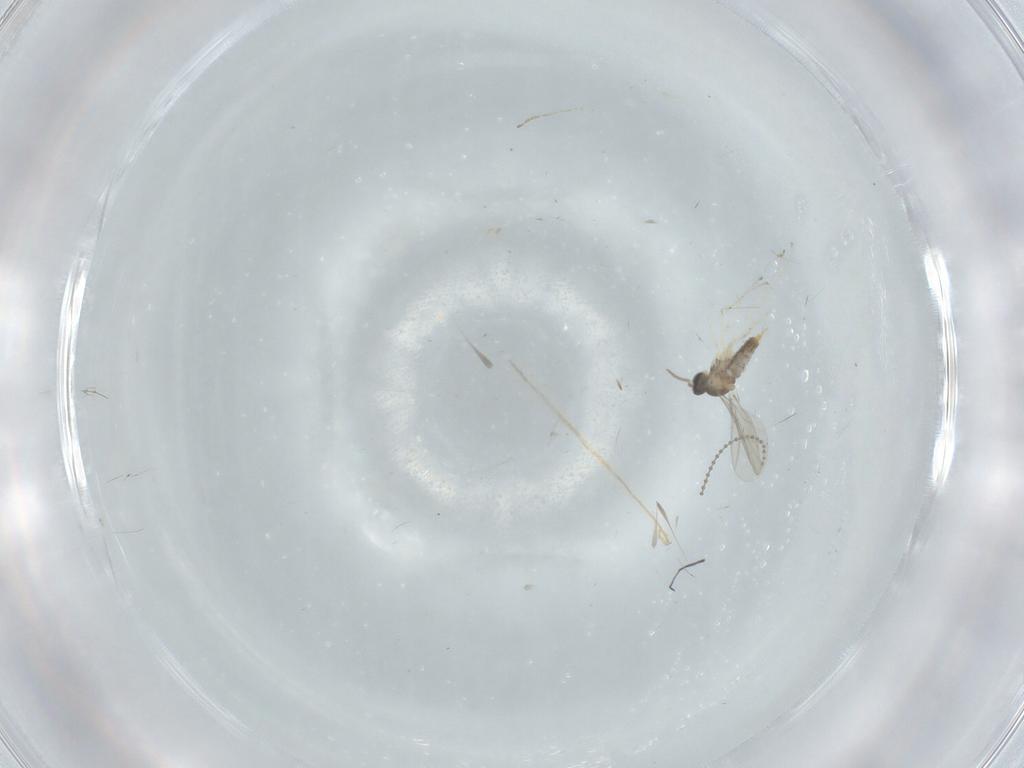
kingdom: Animalia
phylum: Arthropoda
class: Insecta
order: Diptera
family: Cecidomyiidae
